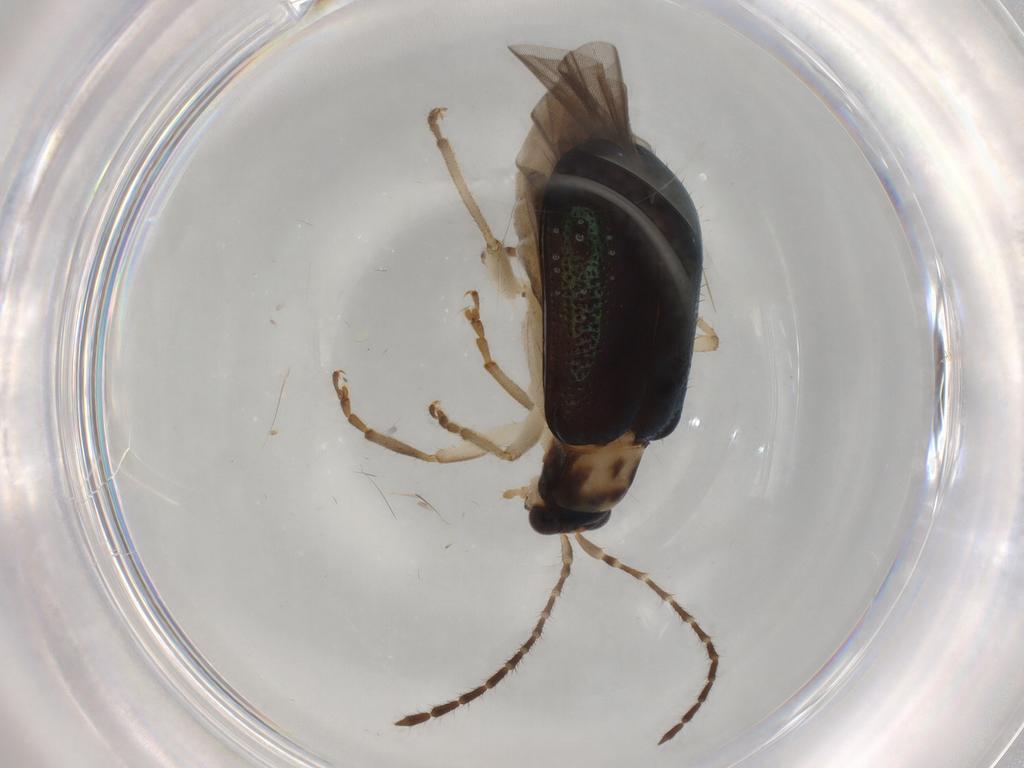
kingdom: Animalia
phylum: Arthropoda
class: Insecta
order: Coleoptera
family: Chrysomelidae
